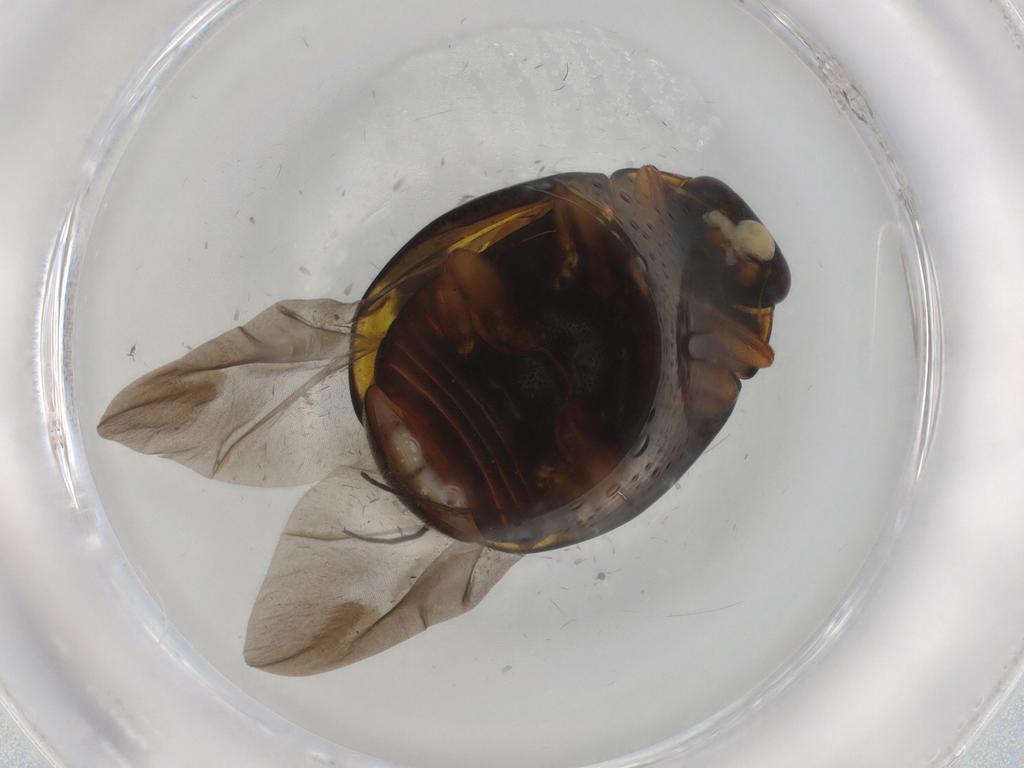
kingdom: Animalia
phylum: Arthropoda
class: Insecta
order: Coleoptera
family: Coccinellidae
